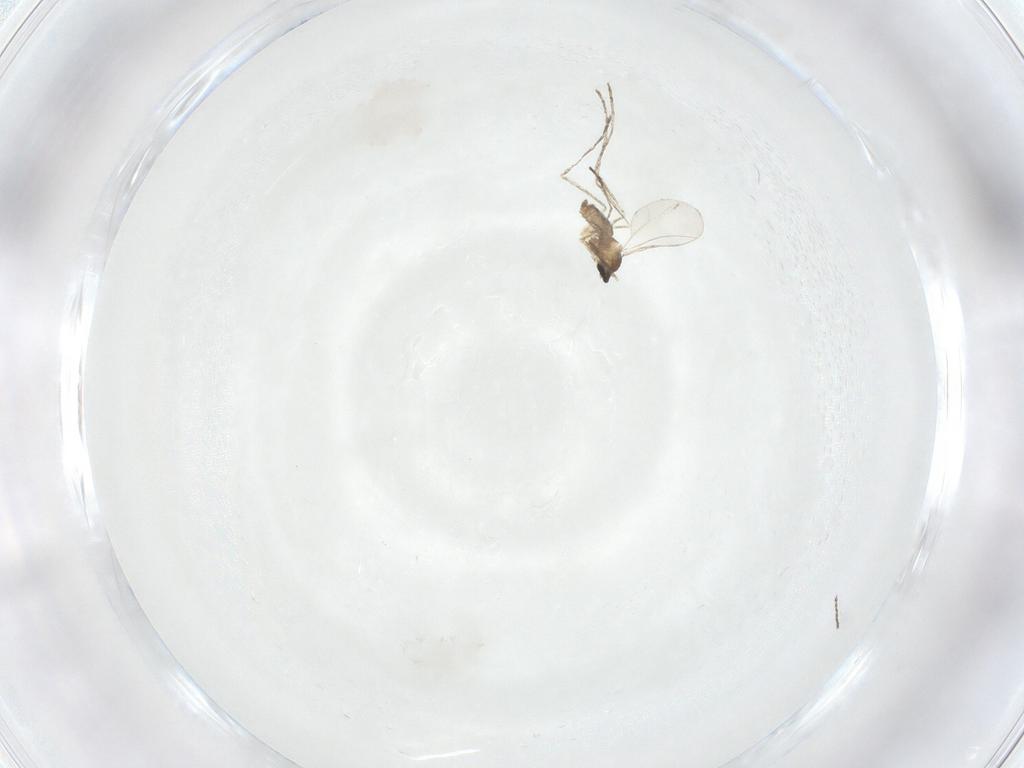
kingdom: Animalia
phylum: Arthropoda
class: Insecta
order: Diptera
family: Cecidomyiidae
